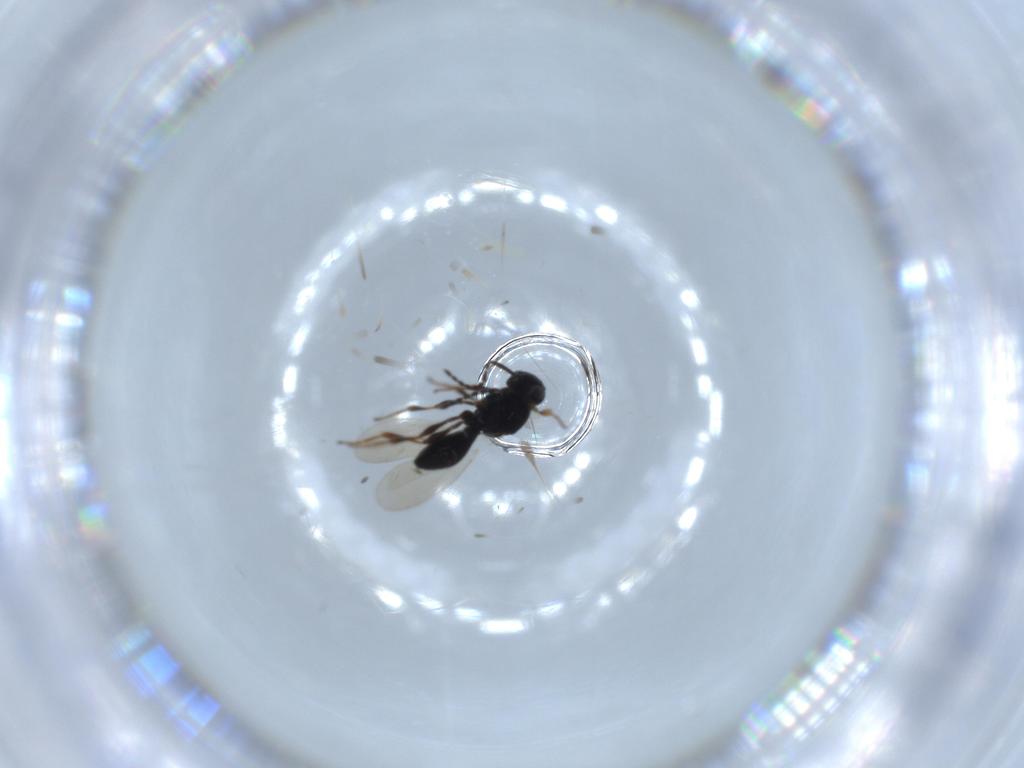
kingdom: Animalia
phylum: Arthropoda
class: Insecta
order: Hymenoptera
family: Platygastridae
